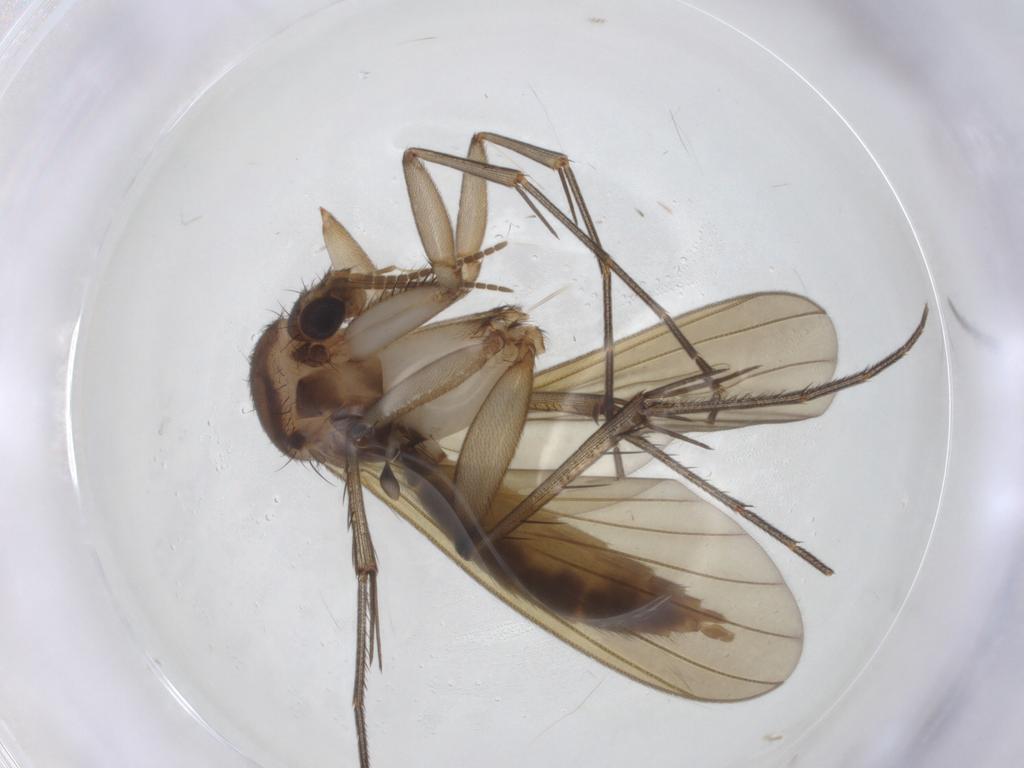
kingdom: Animalia
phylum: Arthropoda
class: Insecta
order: Diptera
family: Mycetophilidae
